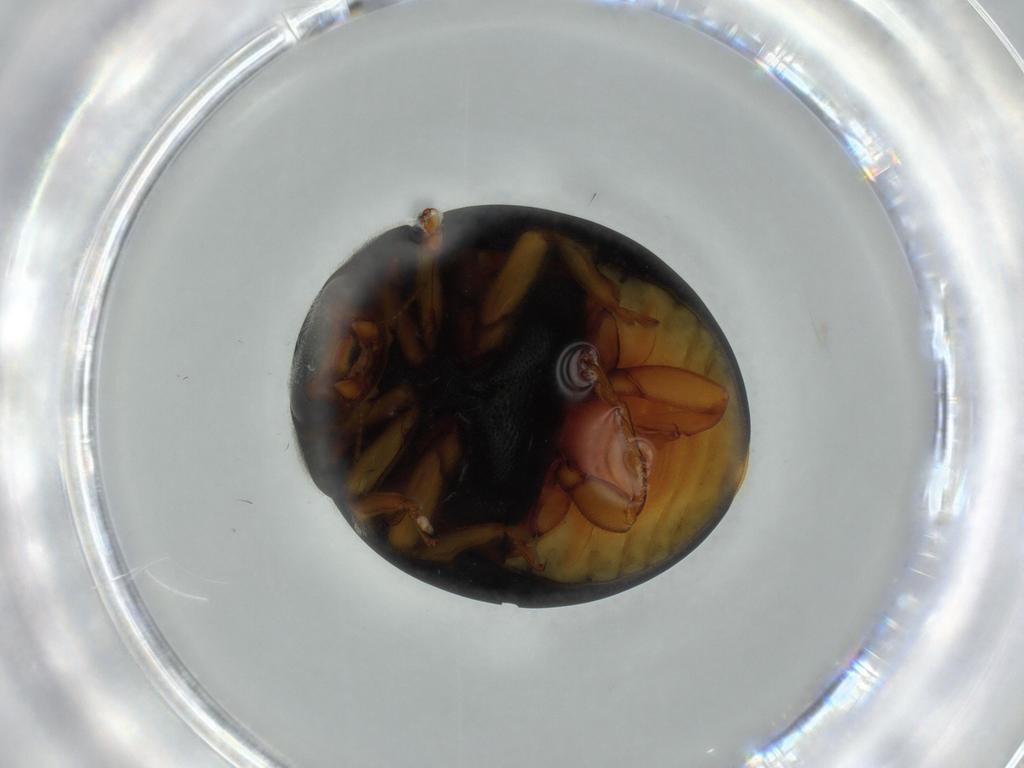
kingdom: Animalia
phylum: Arthropoda
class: Insecta
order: Coleoptera
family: Coccinellidae
